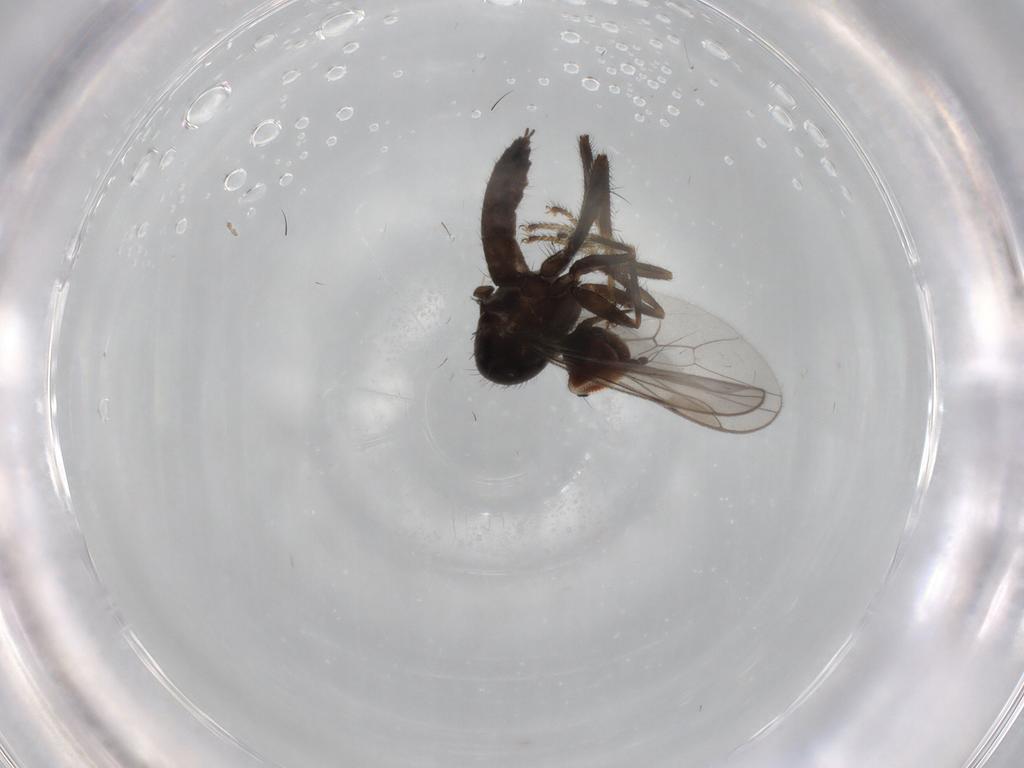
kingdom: Animalia
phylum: Arthropoda
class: Insecta
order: Diptera
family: Hybotidae
